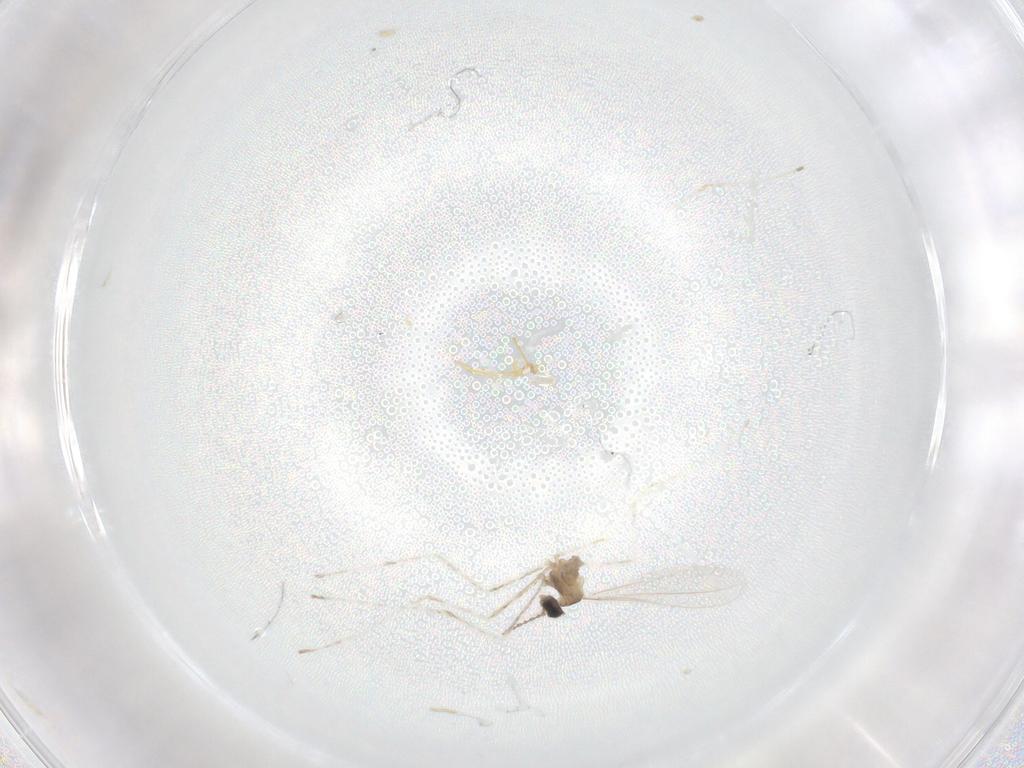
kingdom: Animalia
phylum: Arthropoda
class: Insecta
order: Diptera
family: Cecidomyiidae
